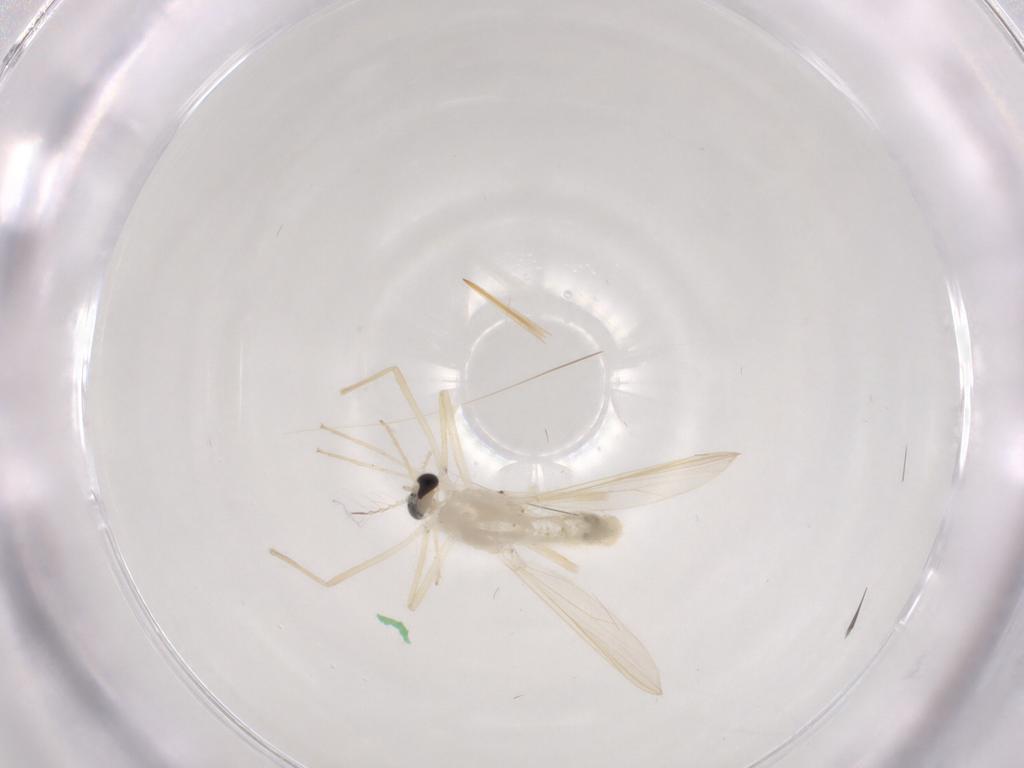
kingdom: Animalia
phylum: Arthropoda
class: Insecta
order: Diptera
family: Chironomidae
